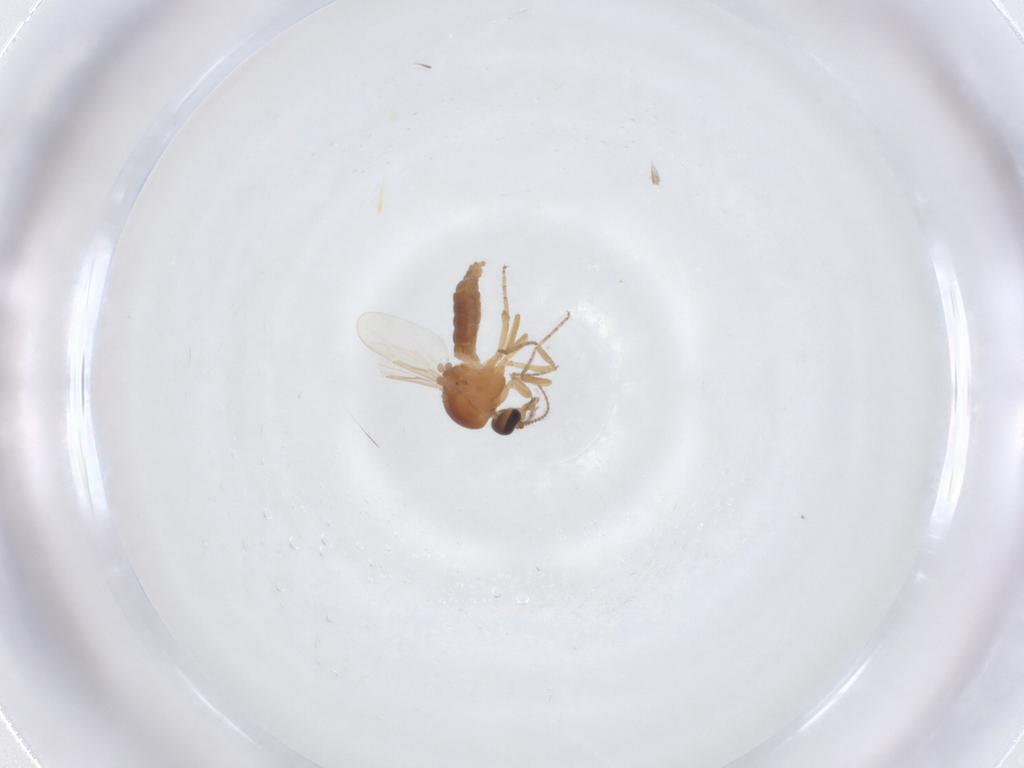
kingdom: Animalia
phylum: Arthropoda
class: Insecta
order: Diptera
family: Ceratopogonidae
